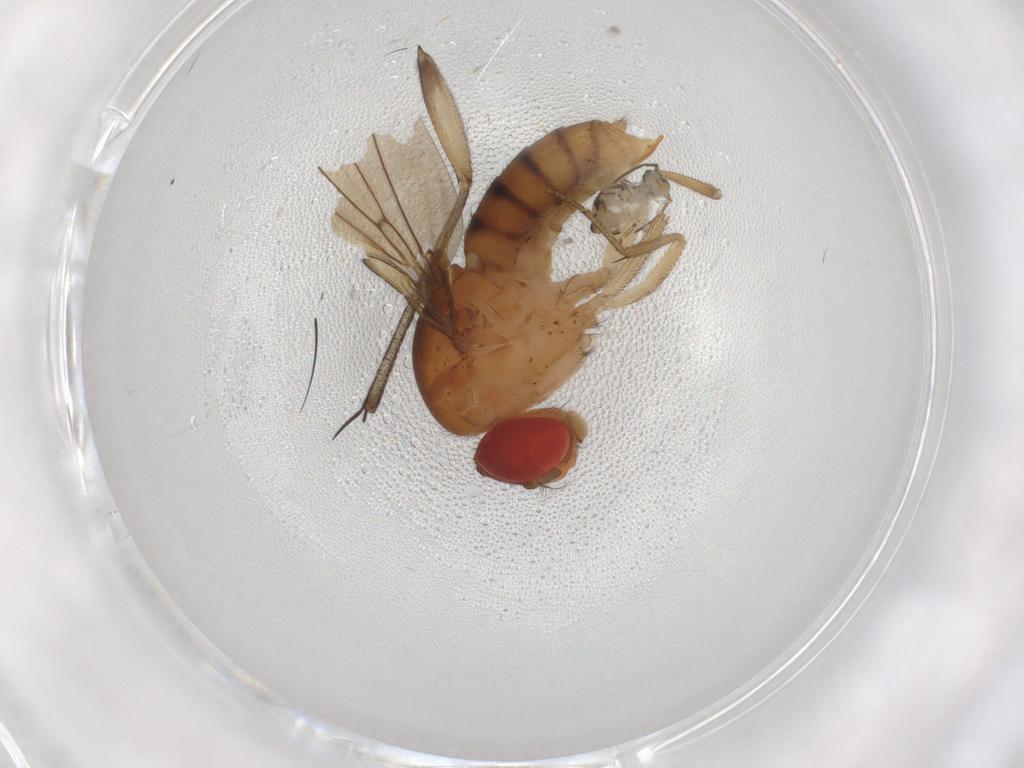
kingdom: Animalia
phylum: Arthropoda
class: Insecta
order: Diptera
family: Drosophilidae
